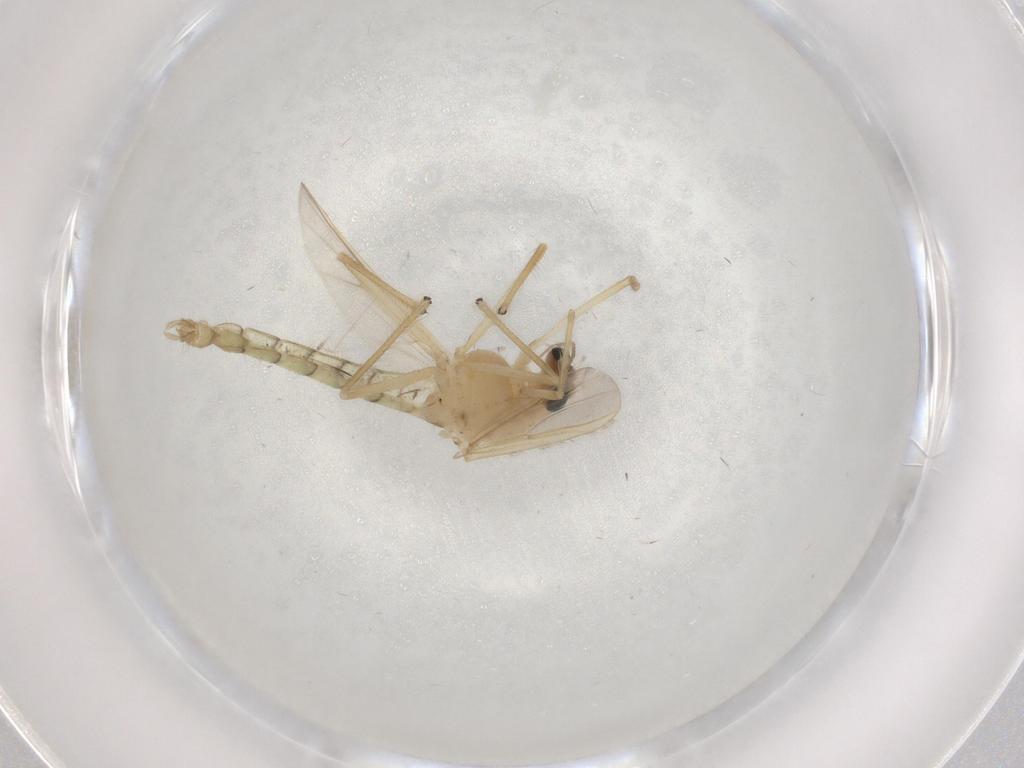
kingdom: Animalia
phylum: Arthropoda
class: Insecta
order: Diptera
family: Chironomidae
